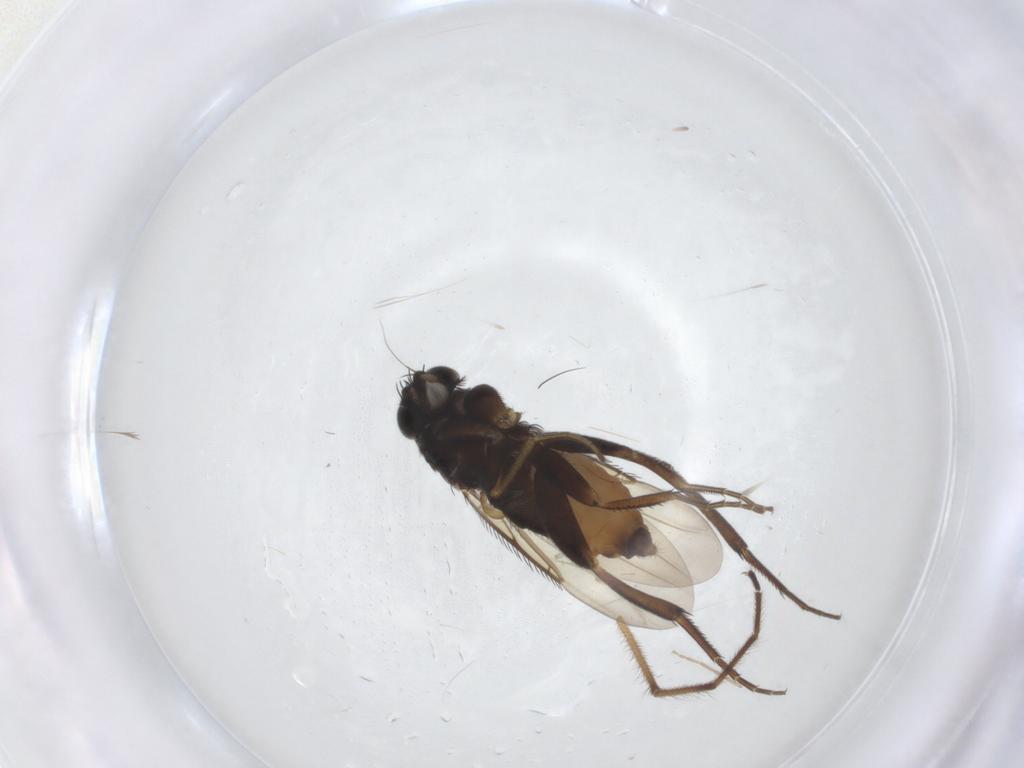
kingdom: Animalia
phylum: Arthropoda
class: Insecta
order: Diptera
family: Phoridae
